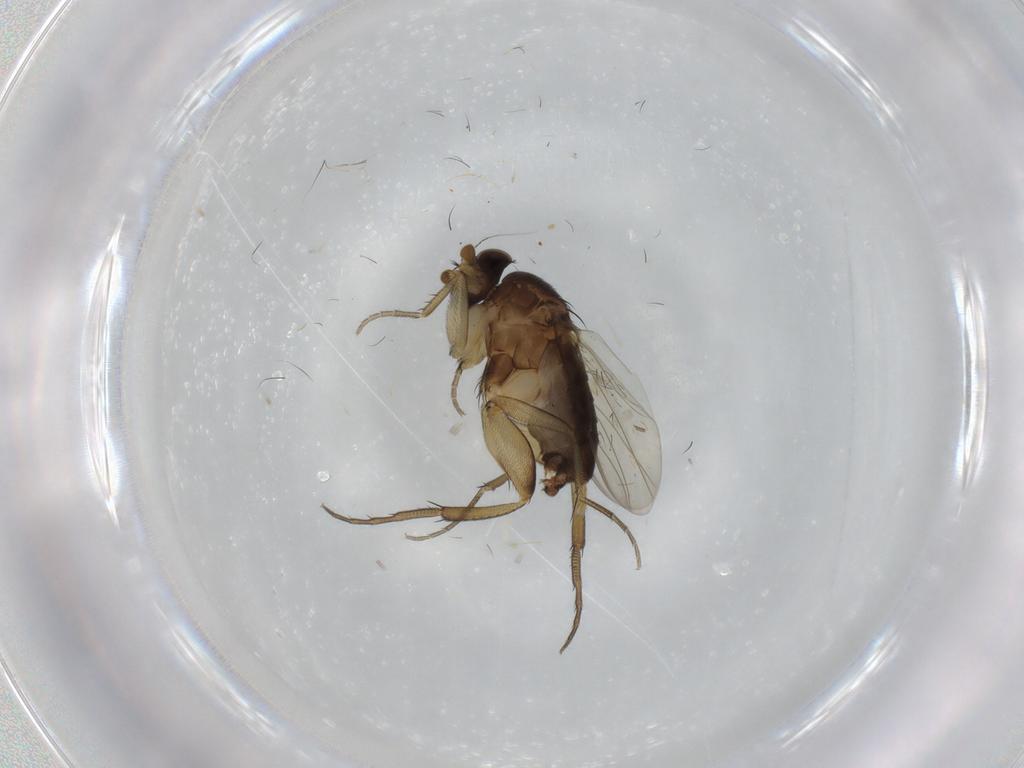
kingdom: Animalia
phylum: Arthropoda
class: Insecta
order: Diptera
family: Phoridae
